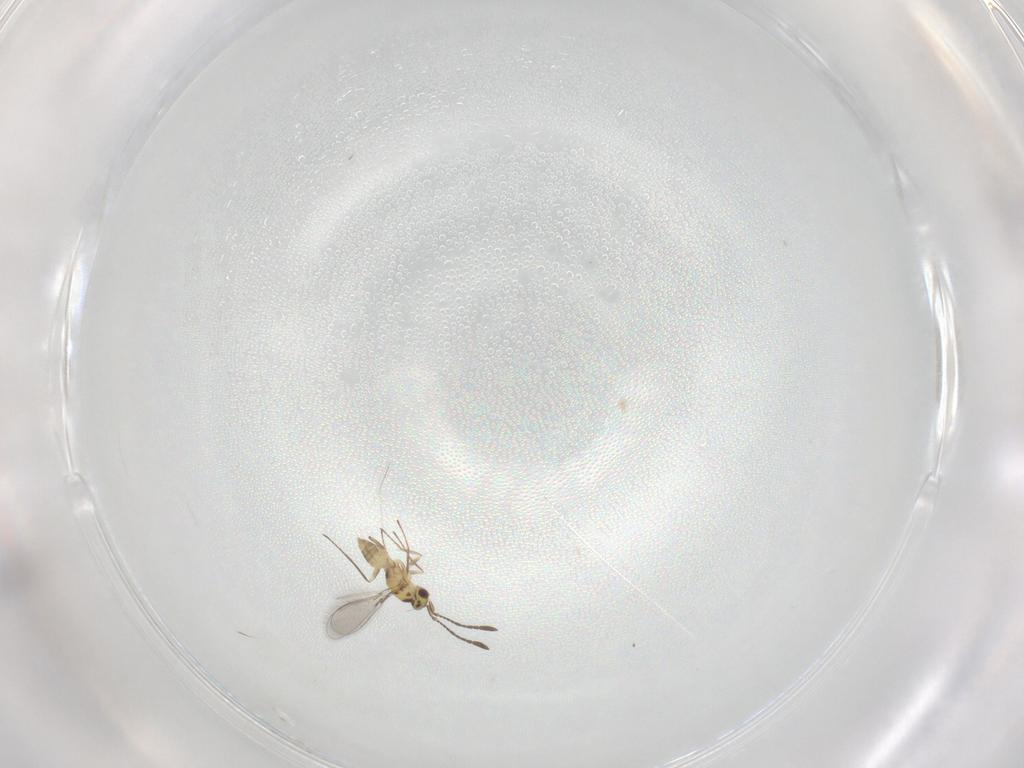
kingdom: Animalia
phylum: Arthropoda
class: Insecta
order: Hymenoptera
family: Mymaridae
